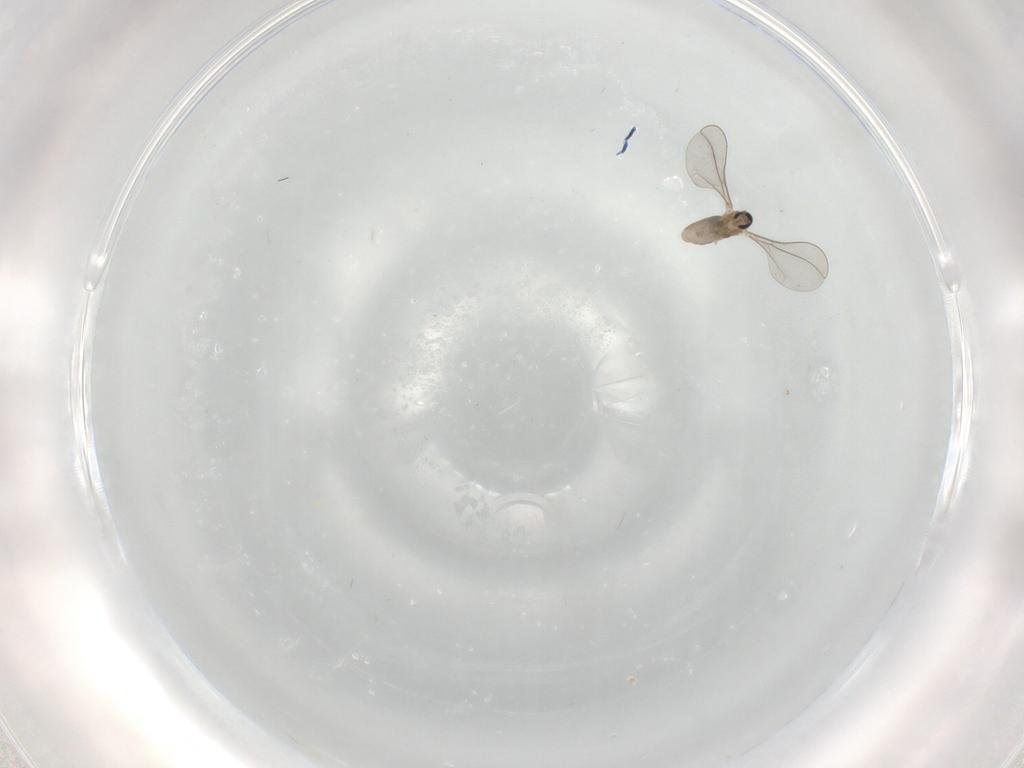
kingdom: Animalia
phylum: Arthropoda
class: Insecta
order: Diptera
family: Cecidomyiidae
